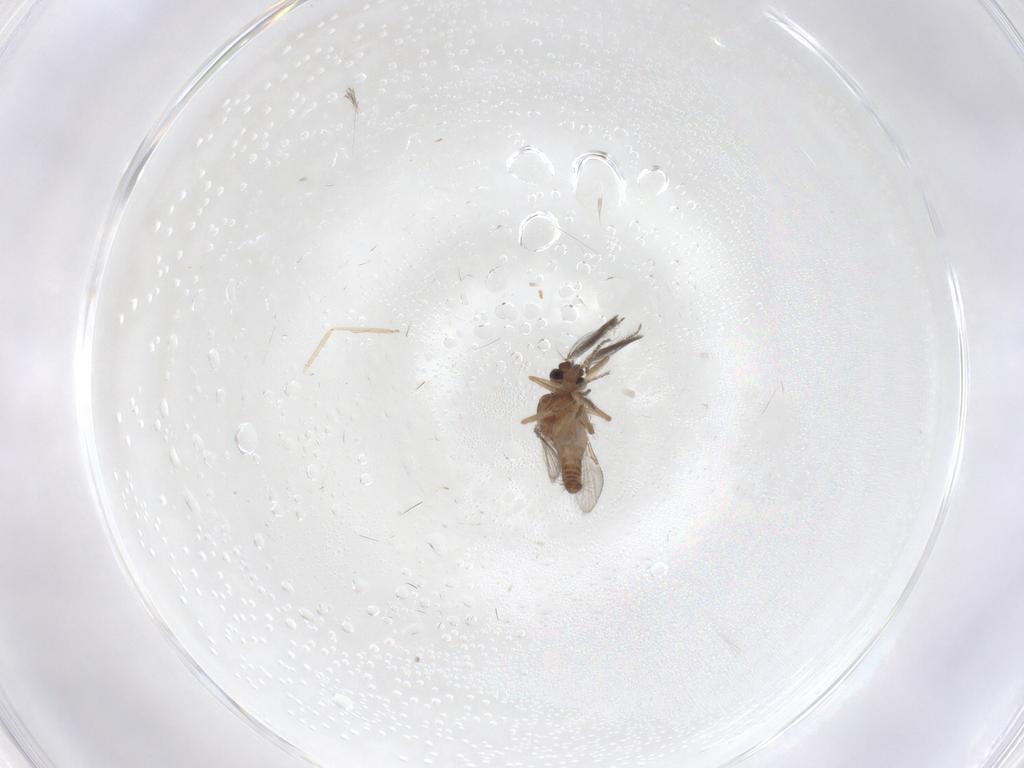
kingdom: Animalia
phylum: Arthropoda
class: Insecta
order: Diptera
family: Ceratopogonidae
